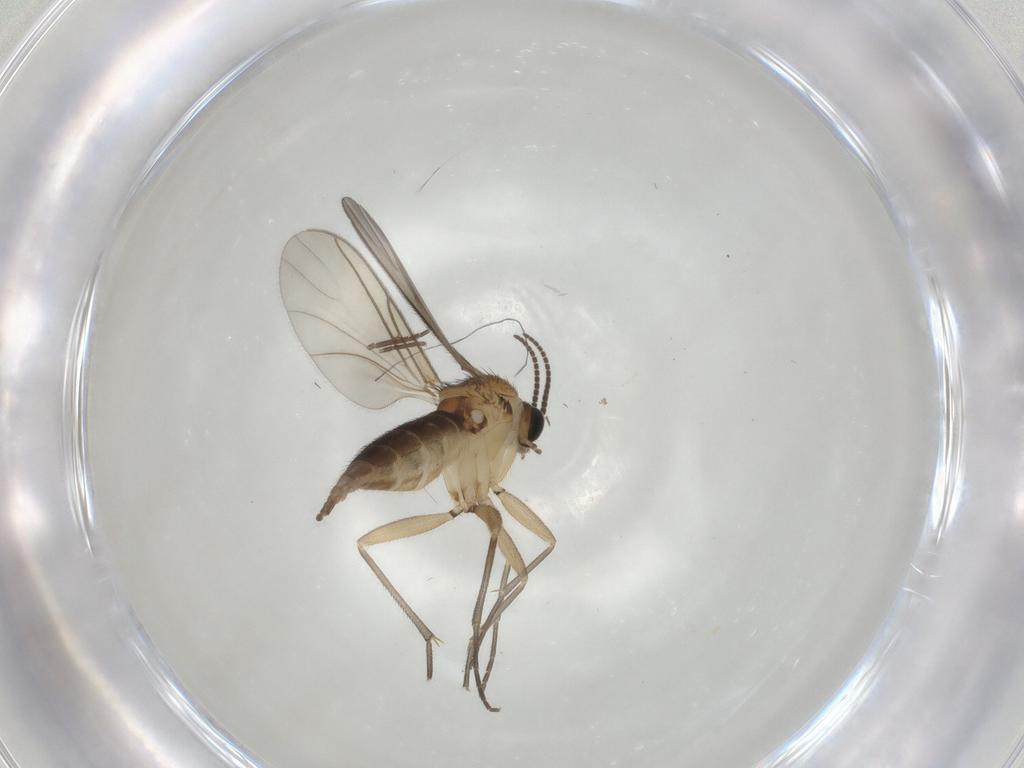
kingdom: Animalia
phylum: Arthropoda
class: Insecta
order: Diptera
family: Sciaridae
